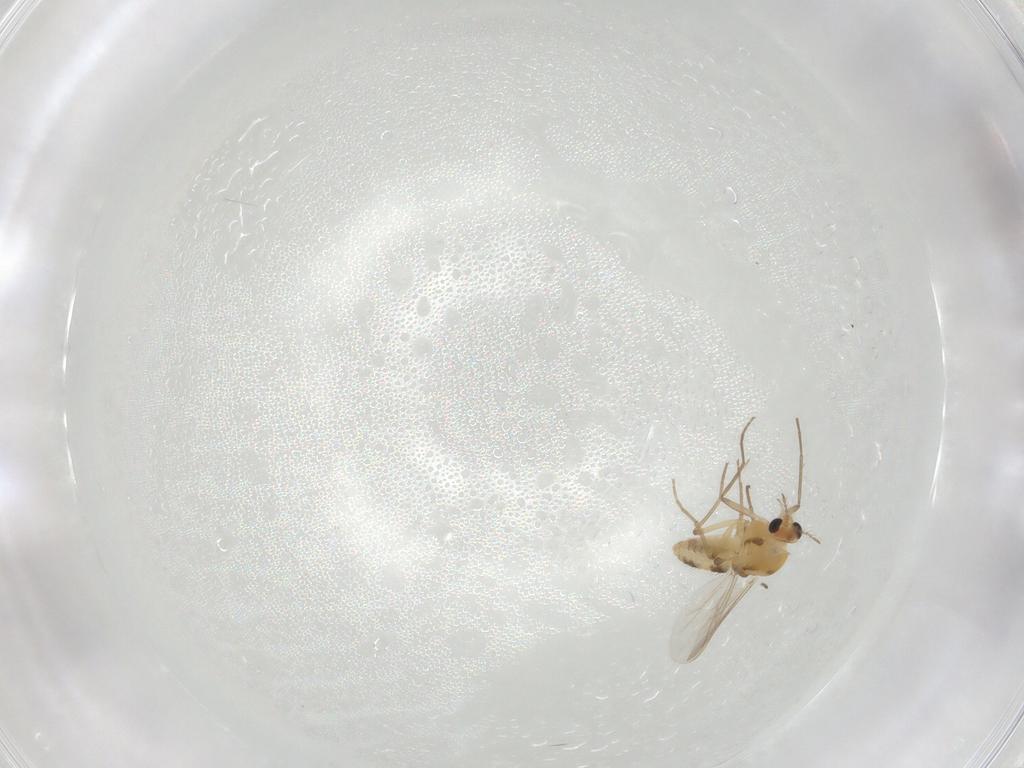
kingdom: Animalia
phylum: Arthropoda
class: Insecta
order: Diptera
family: Chironomidae
